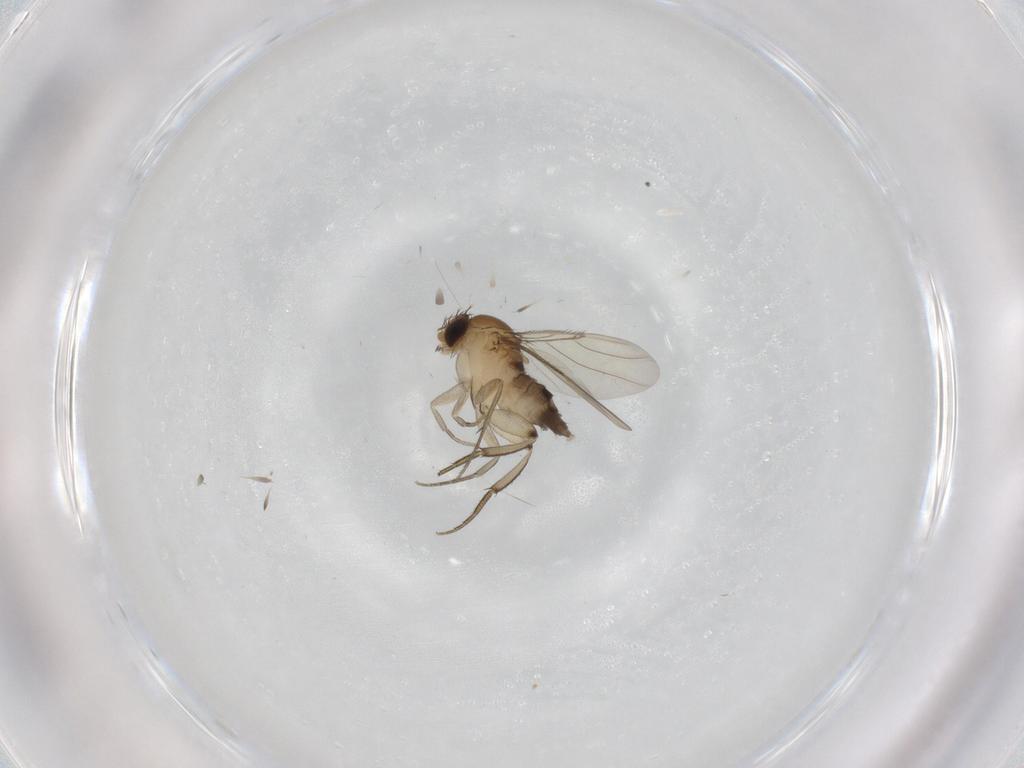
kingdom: Animalia
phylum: Arthropoda
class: Insecta
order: Diptera
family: Phoridae
